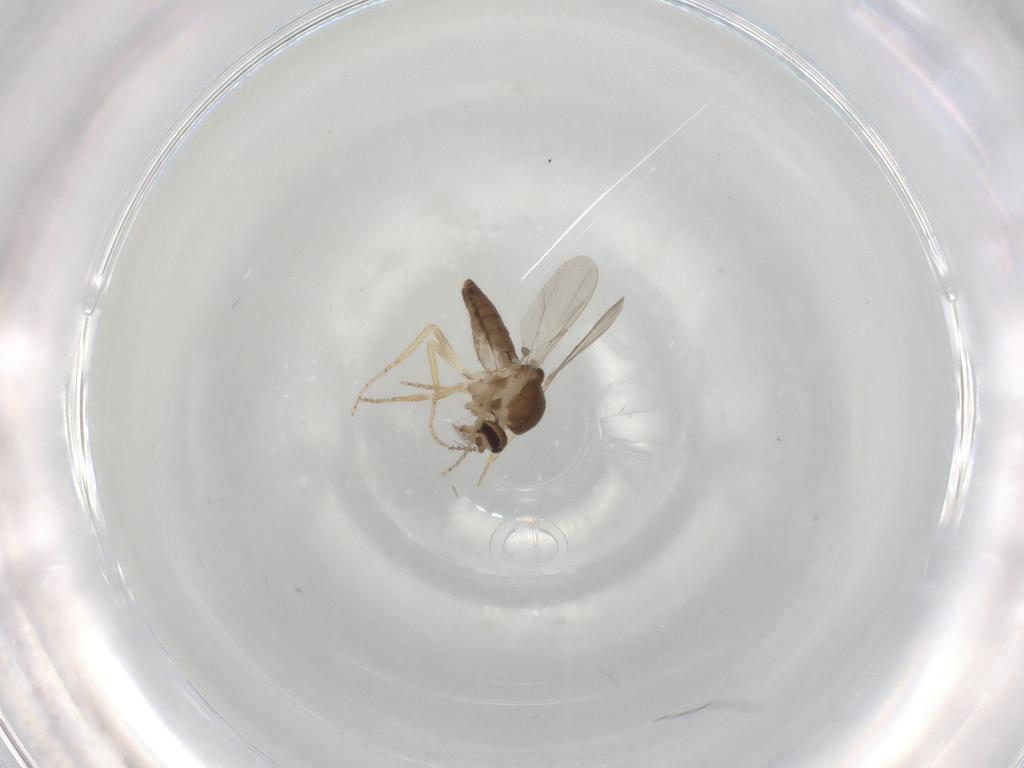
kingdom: Animalia
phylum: Arthropoda
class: Insecta
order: Diptera
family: Ceratopogonidae
